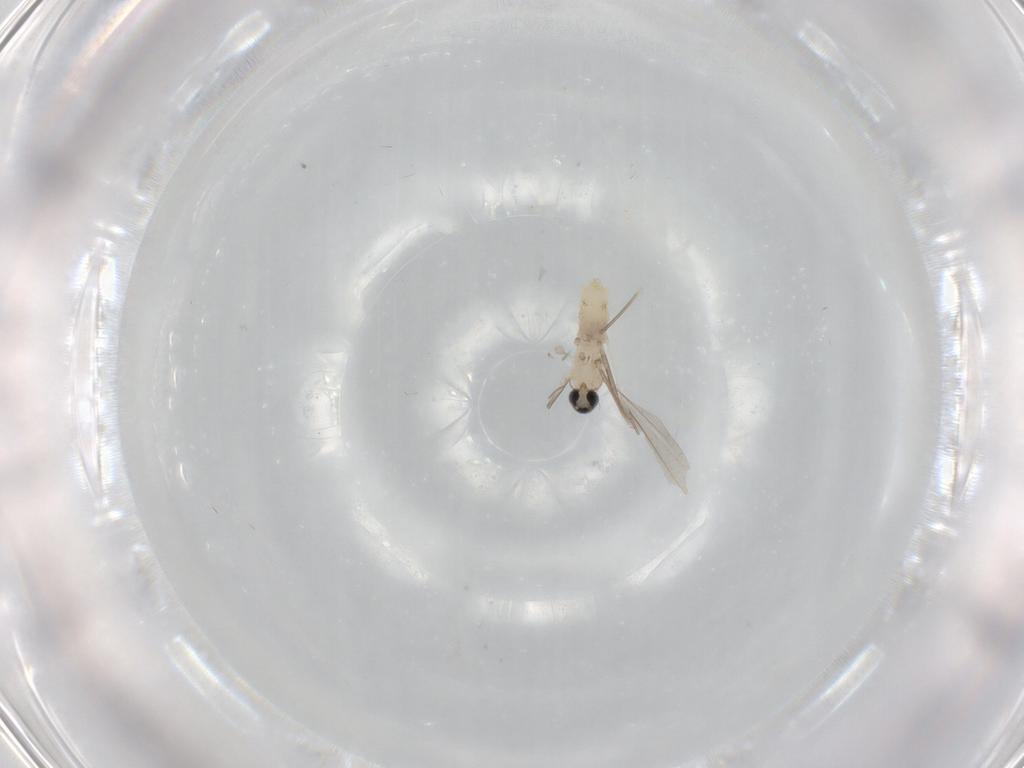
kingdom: Animalia
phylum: Arthropoda
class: Insecta
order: Diptera
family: Cecidomyiidae
